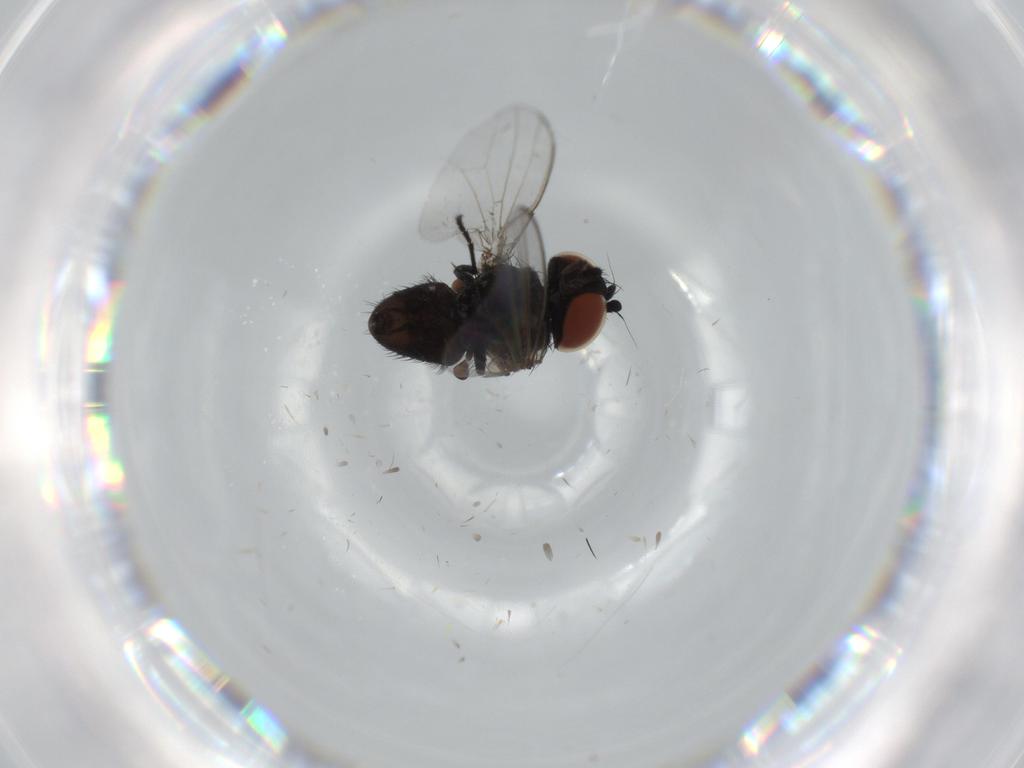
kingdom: Animalia
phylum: Arthropoda
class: Insecta
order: Diptera
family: Milichiidae
